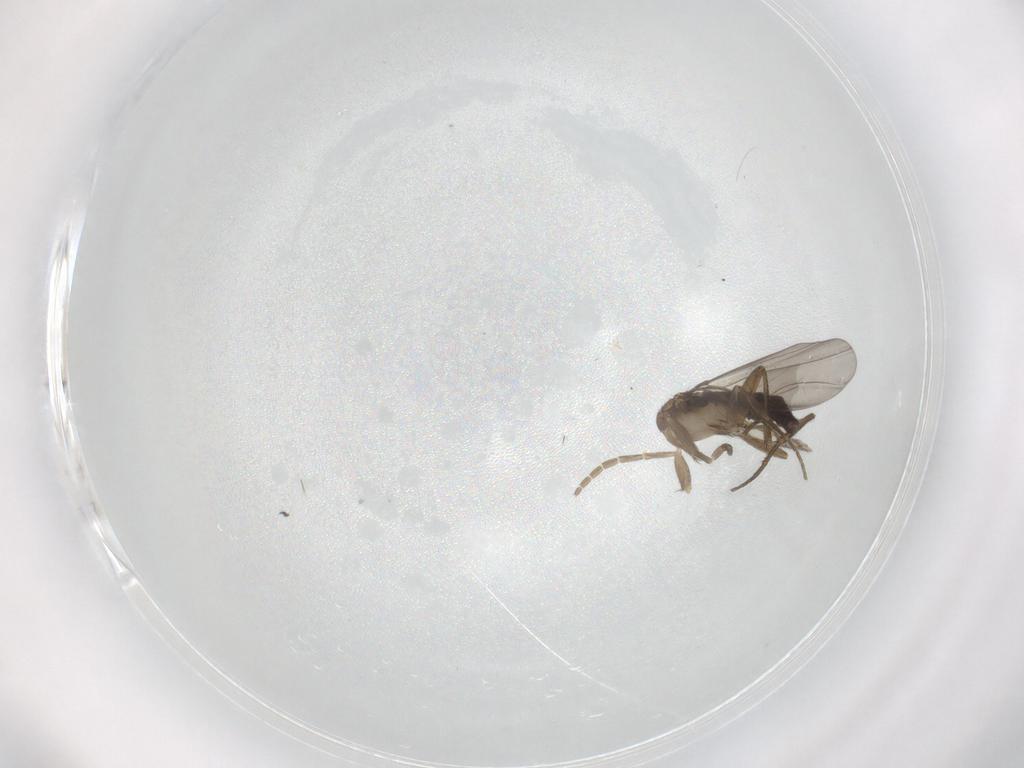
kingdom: Animalia
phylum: Arthropoda
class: Insecta
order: Diptera
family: Phoridae
